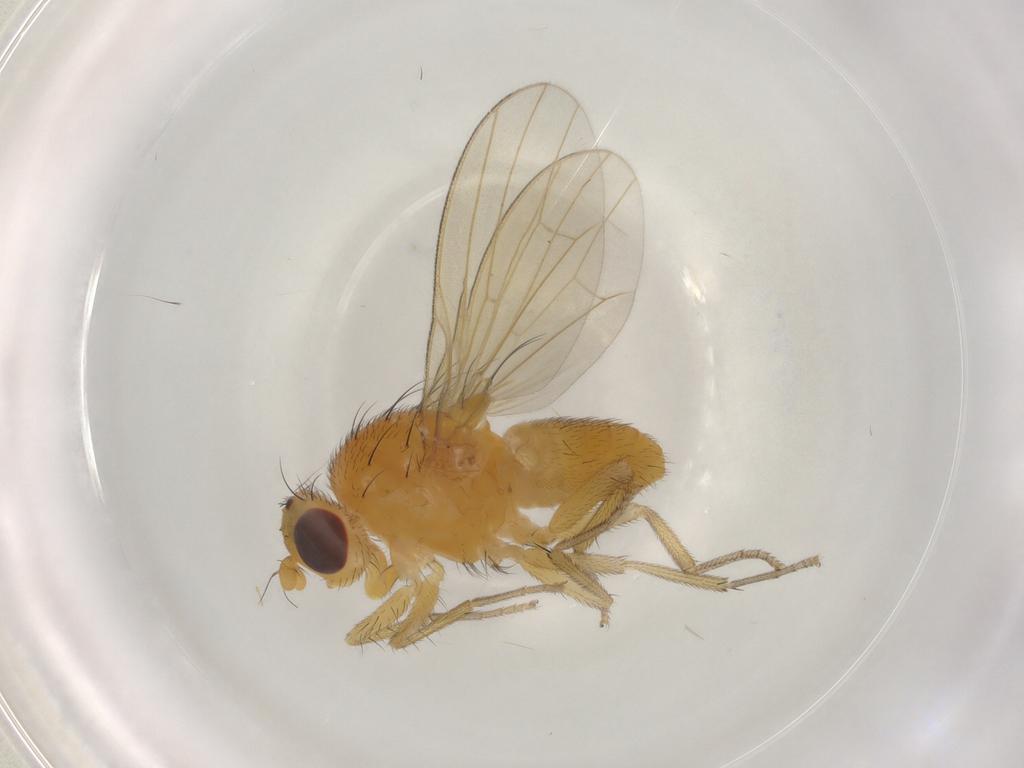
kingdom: Animalia
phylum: Arthropoda
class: Insecta
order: Diptera
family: Lauxaniidae
